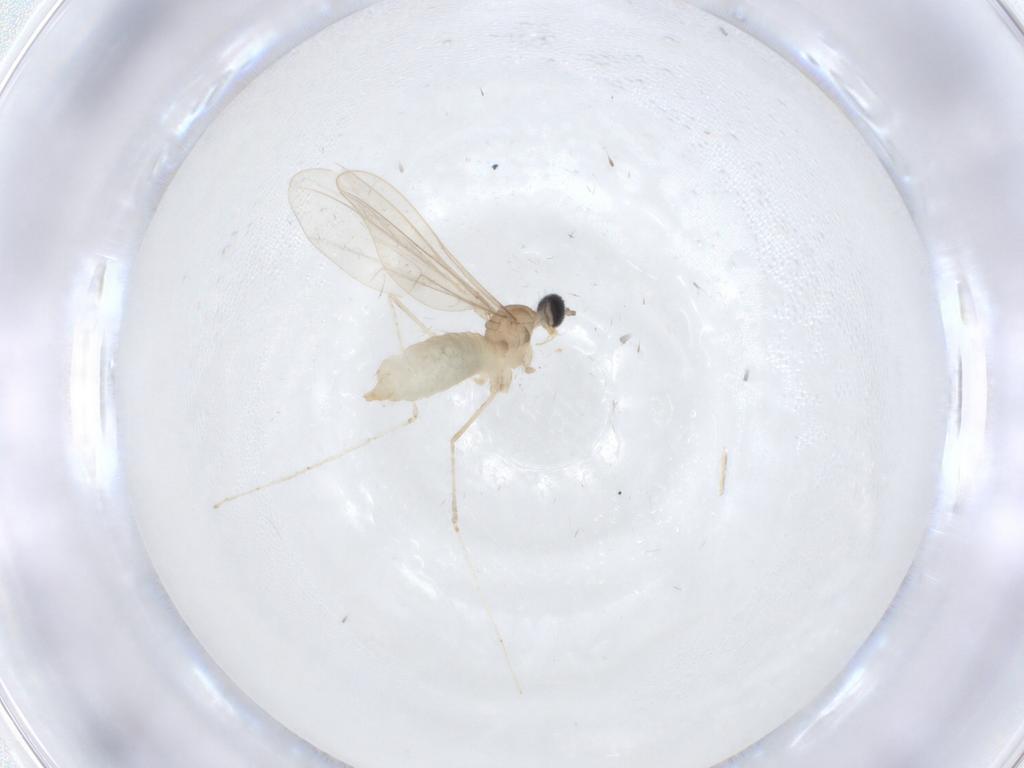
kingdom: Animalia
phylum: Arthropoda
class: Insecta
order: Diptera
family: Cecidomyiidae
